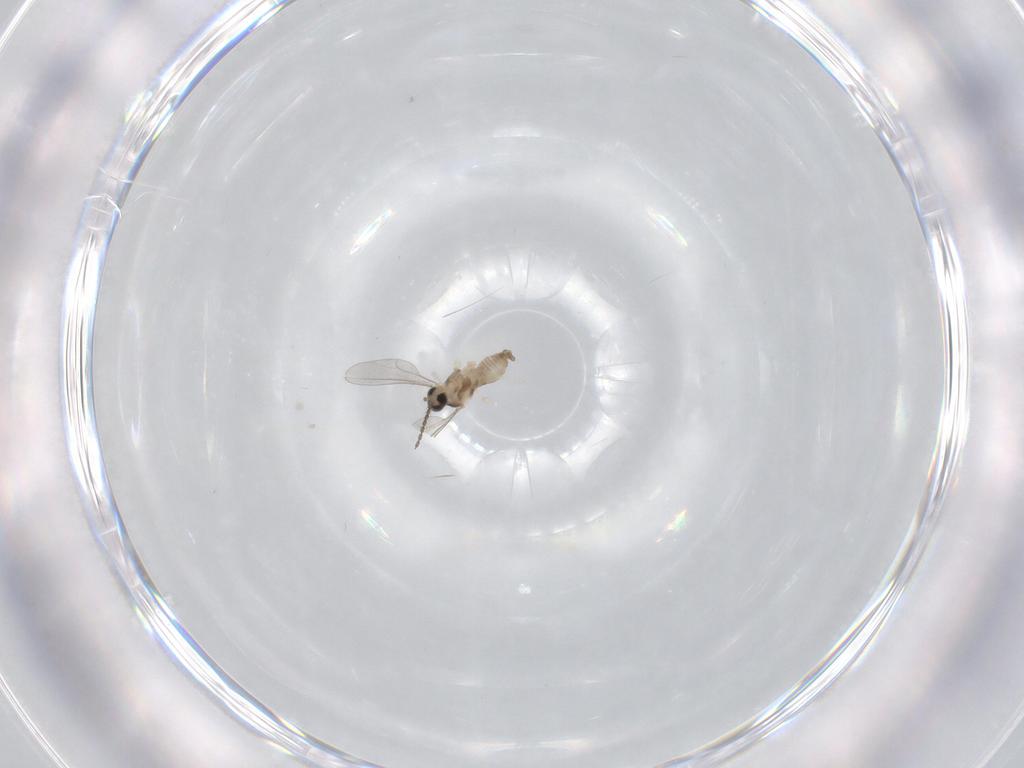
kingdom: Animalia
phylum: Arthropoda
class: Insecta
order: Diptera
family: Cecidomyiidae
